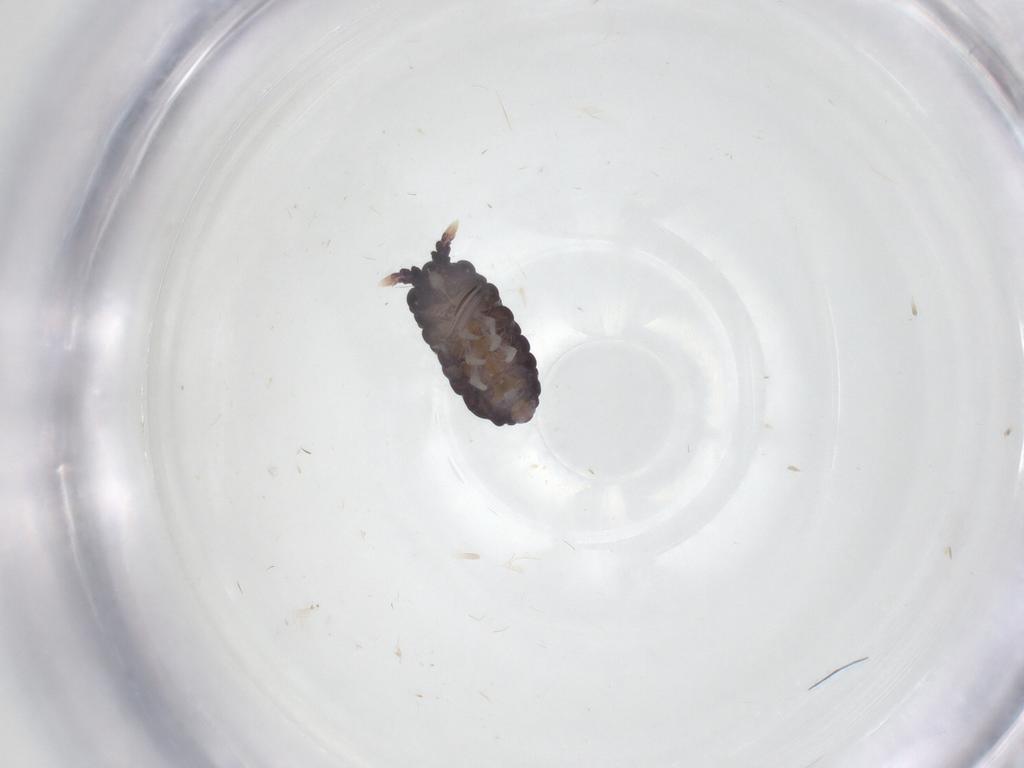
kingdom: Animalia
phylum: Arthropoda
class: Collembola
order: Poduromorpha
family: Neanuridae
